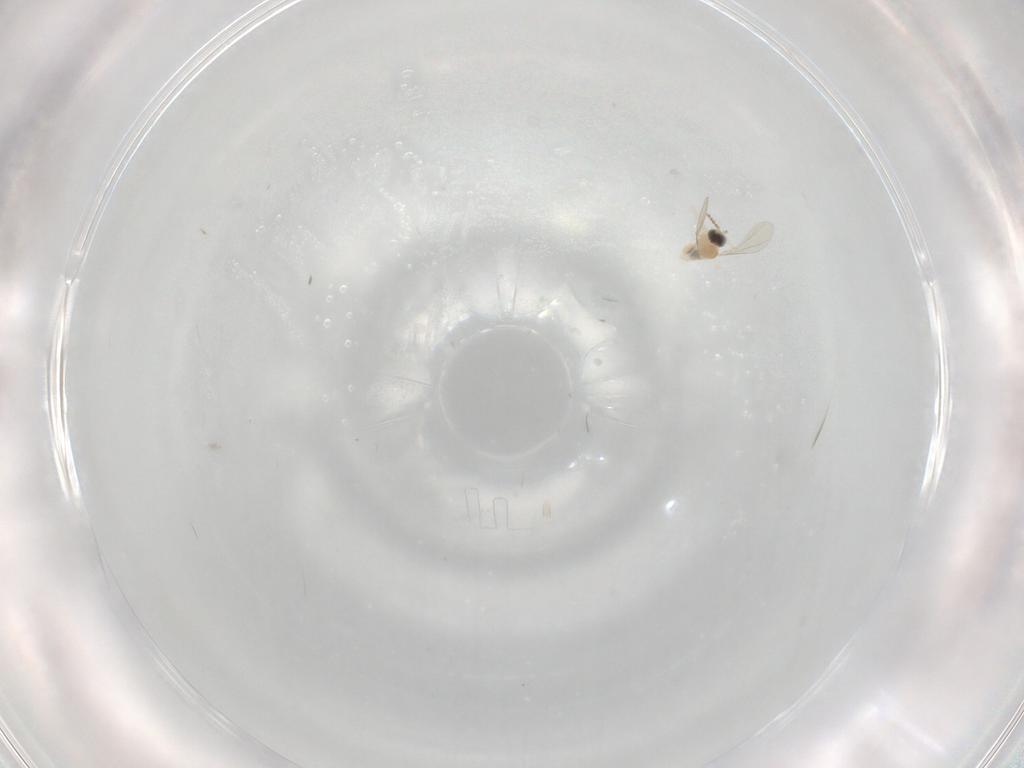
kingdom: Animalia
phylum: Arthropoda
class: Insecta
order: Diptera
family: Cecidomyiidae
